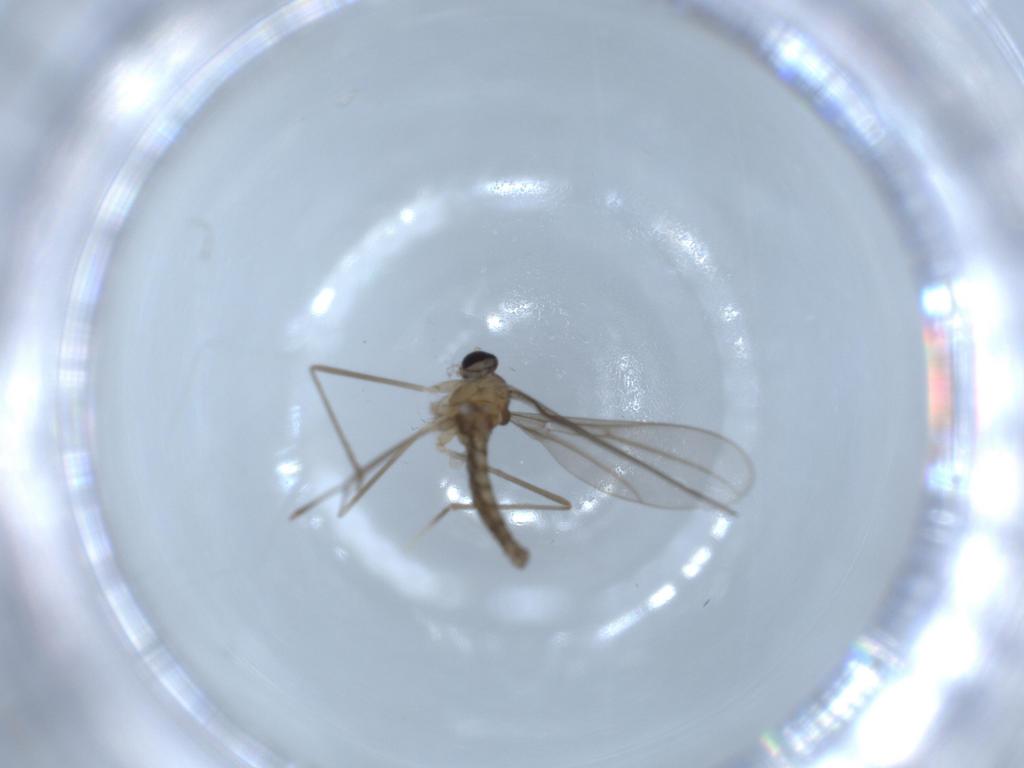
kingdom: Animalia
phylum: Arthropoda
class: Insecta
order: Diptera
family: Cecidomyiidae
